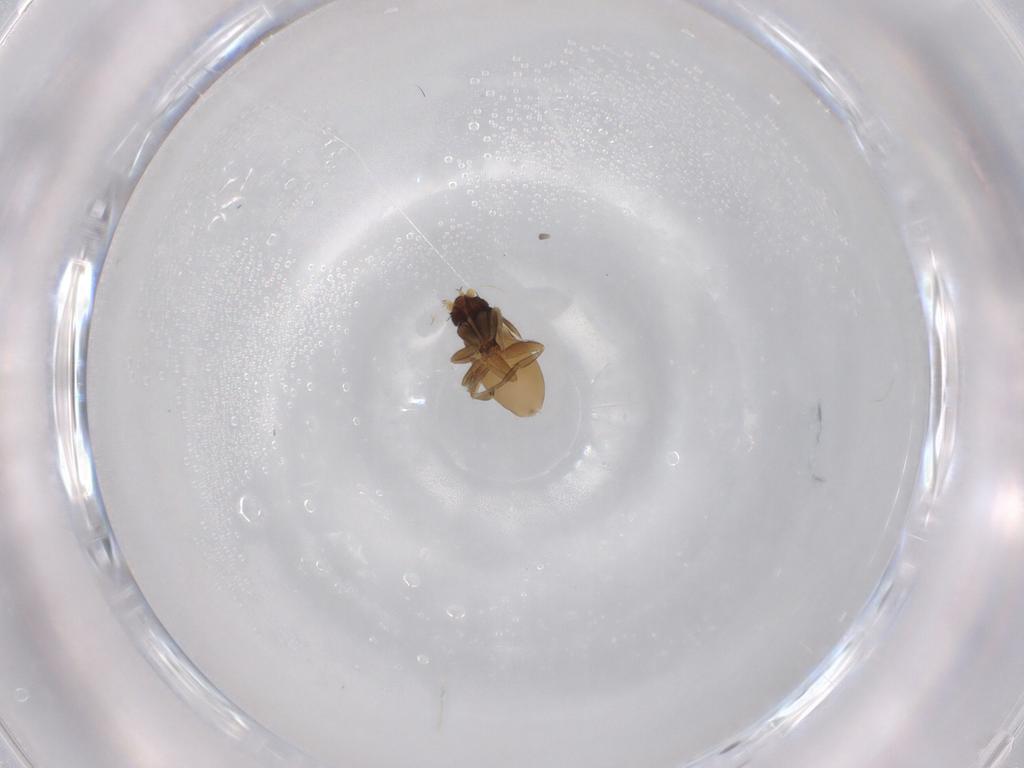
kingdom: Animalia
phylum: Arthropoda
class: Insecta
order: Diptera
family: Phoridae
